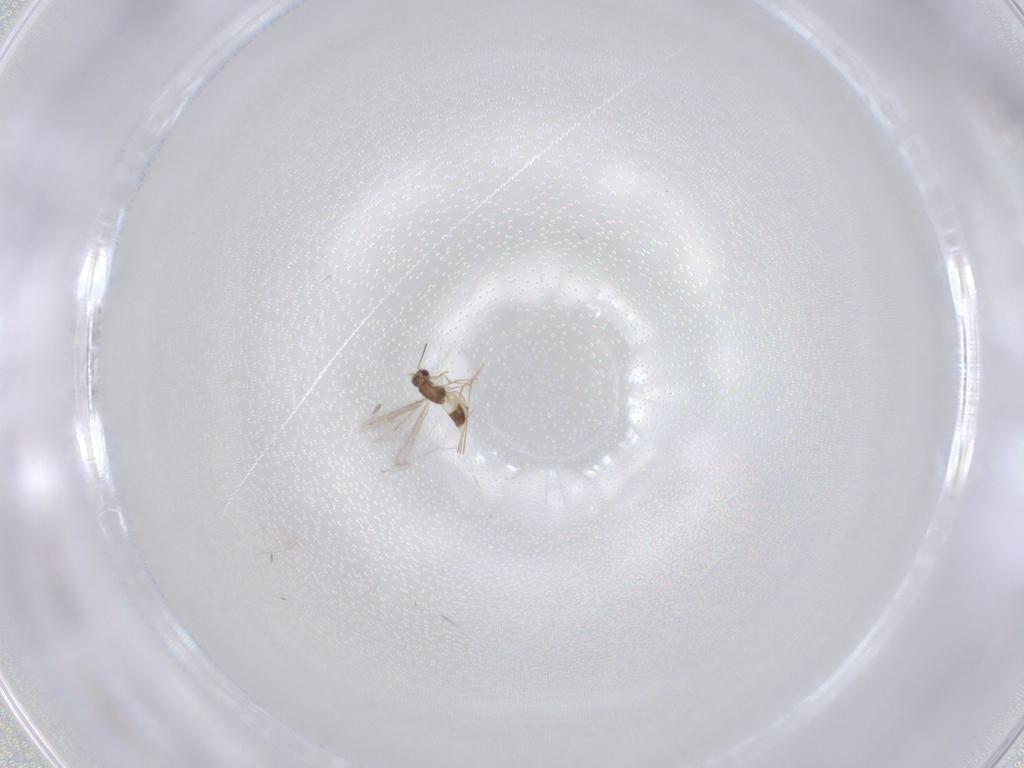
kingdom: Animalia
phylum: Arthropoda
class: Insecta
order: Hymenoptera
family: Mymaridae
